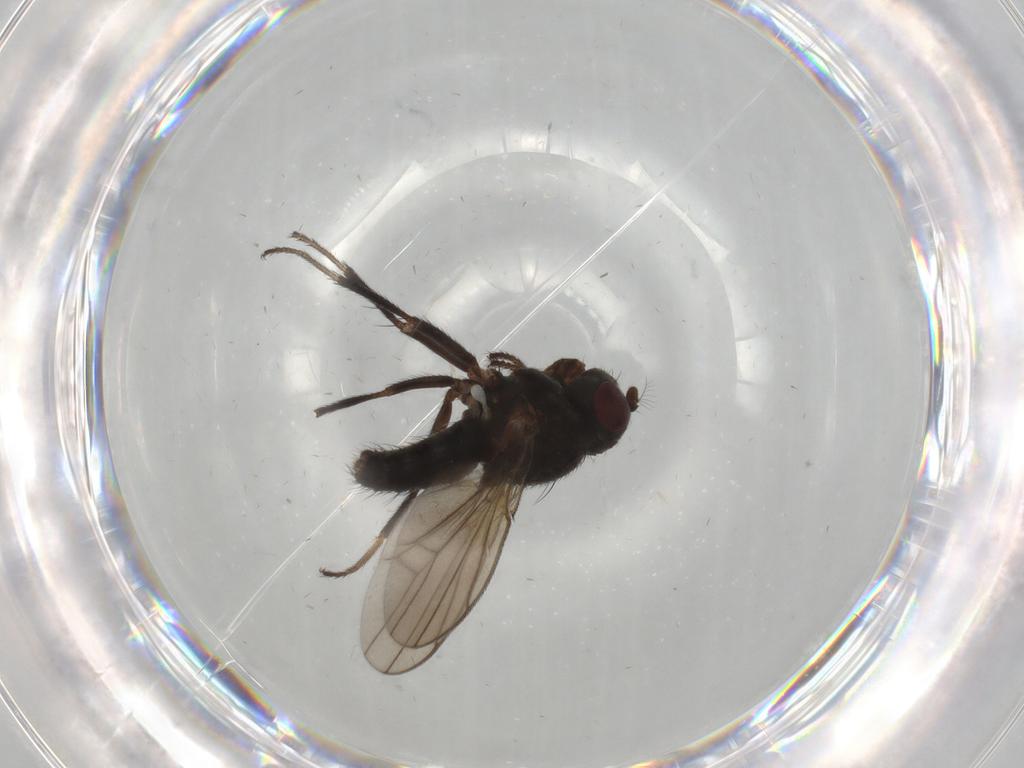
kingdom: Animalia
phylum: Arthropoda
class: Insecta
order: Diptera
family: Ephydridae
